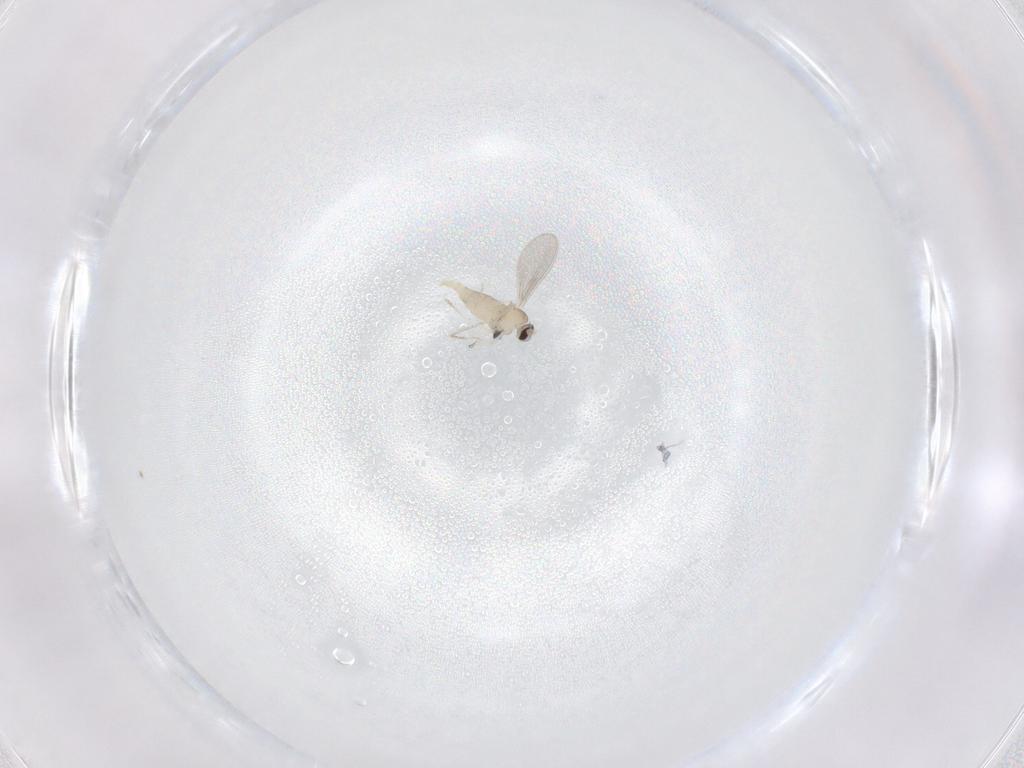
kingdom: Animalia
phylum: Arthropoda
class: Insecta
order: Diptera
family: Cecidomyiidae
